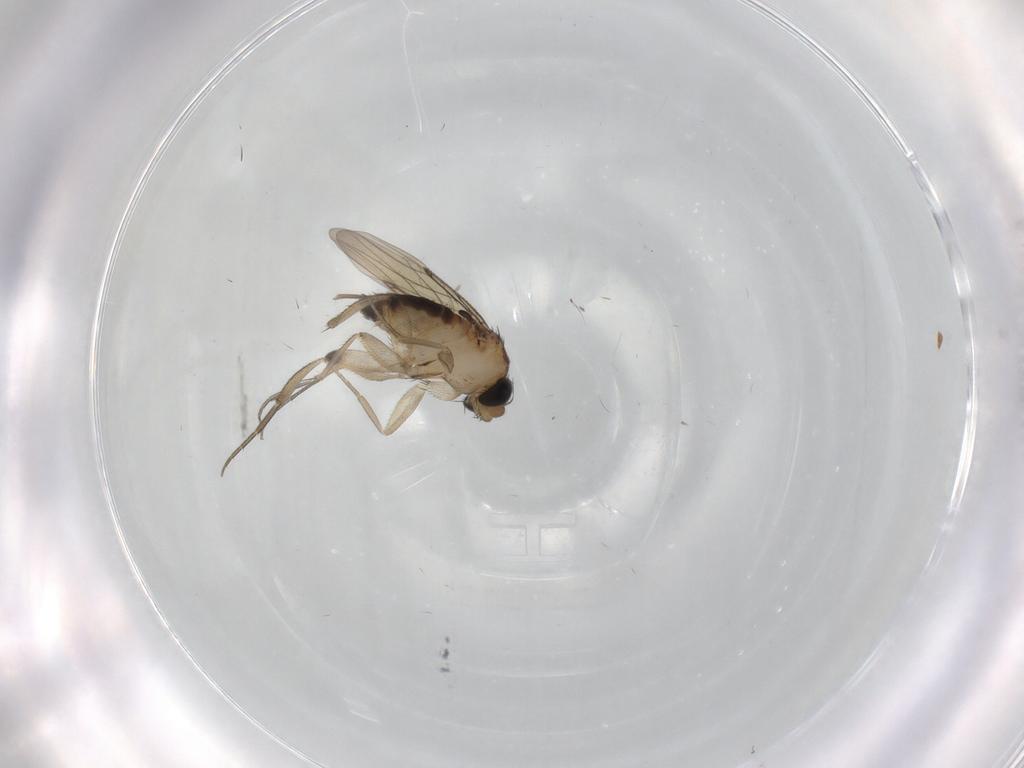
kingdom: Animalia
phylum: Arthropoda
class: Insecta
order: Diptera
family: Phoridae
